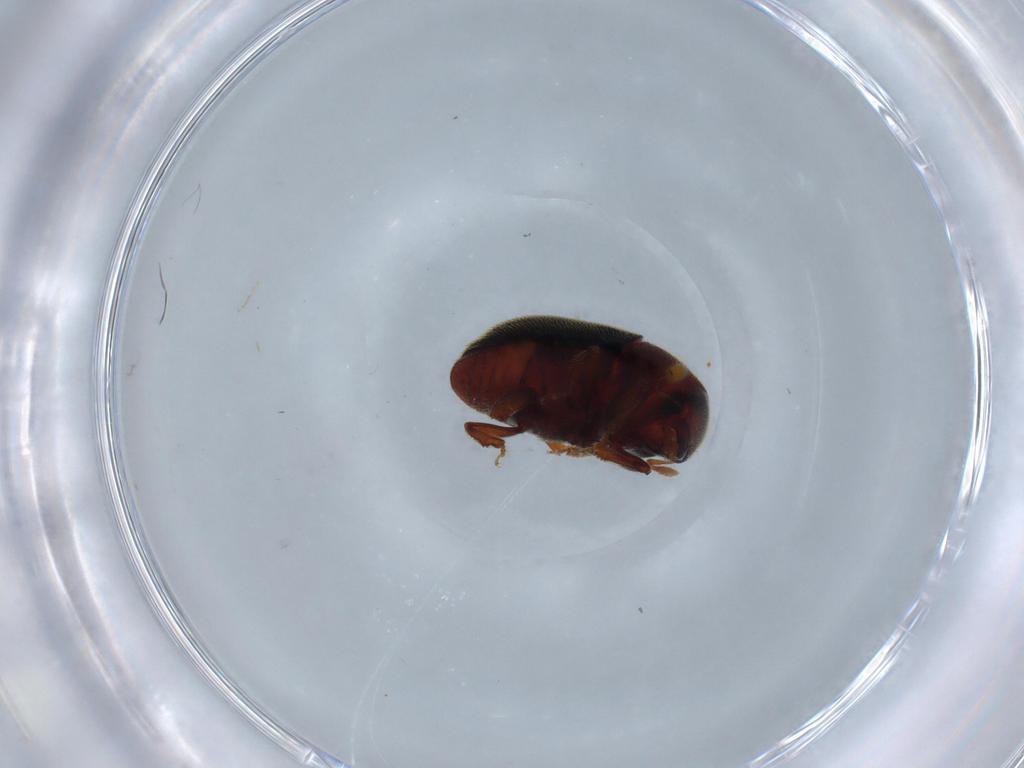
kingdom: Animalia
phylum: Arthropoda
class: Insecta
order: Coleoptera
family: Curculionidae
